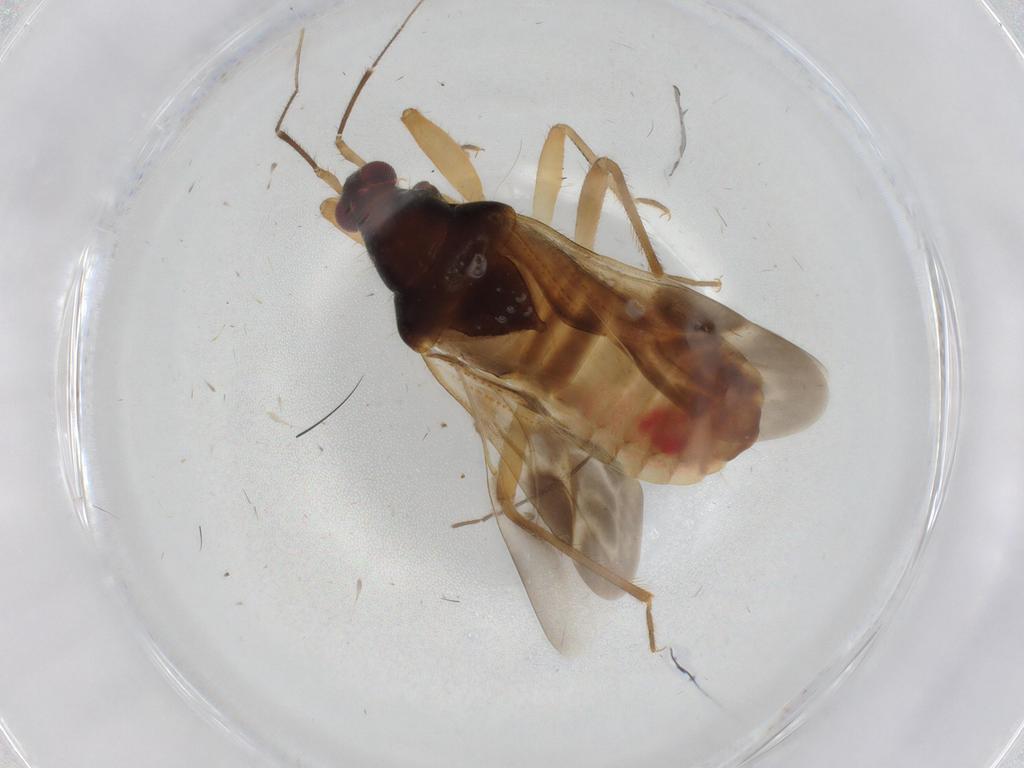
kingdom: Animalia
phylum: Arthropoda
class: Insecta
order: Hemiptera
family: Nabidae
